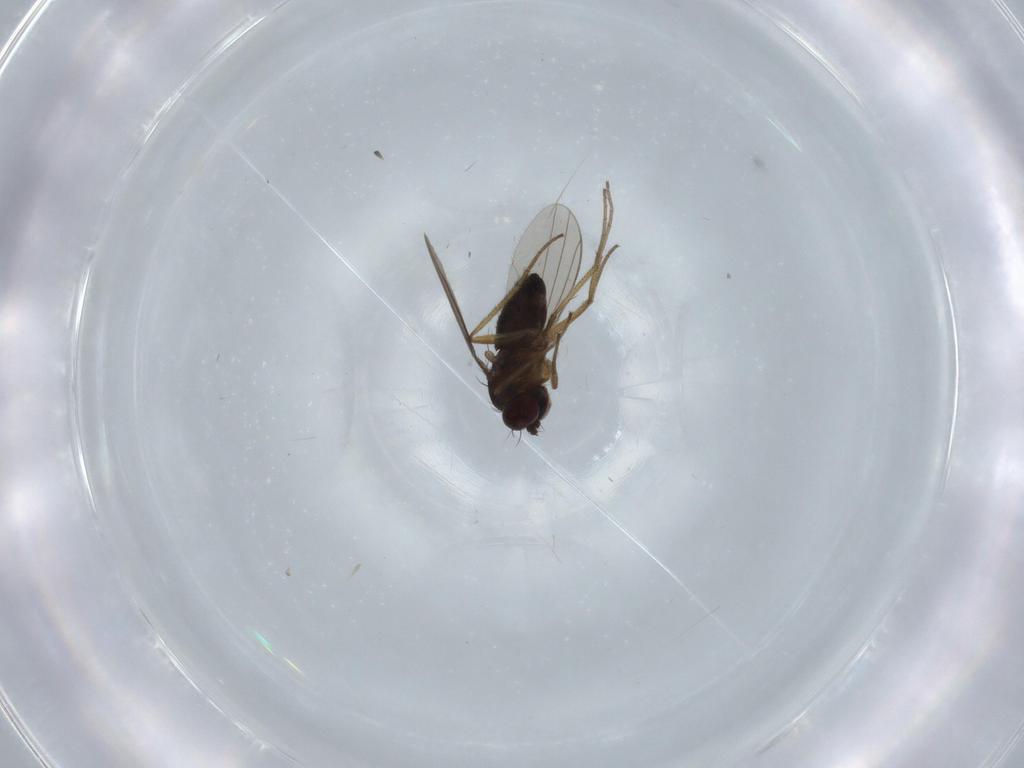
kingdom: Animalia
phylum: Arthropoda
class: Insecta
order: Diptera
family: Dolichopodidae
